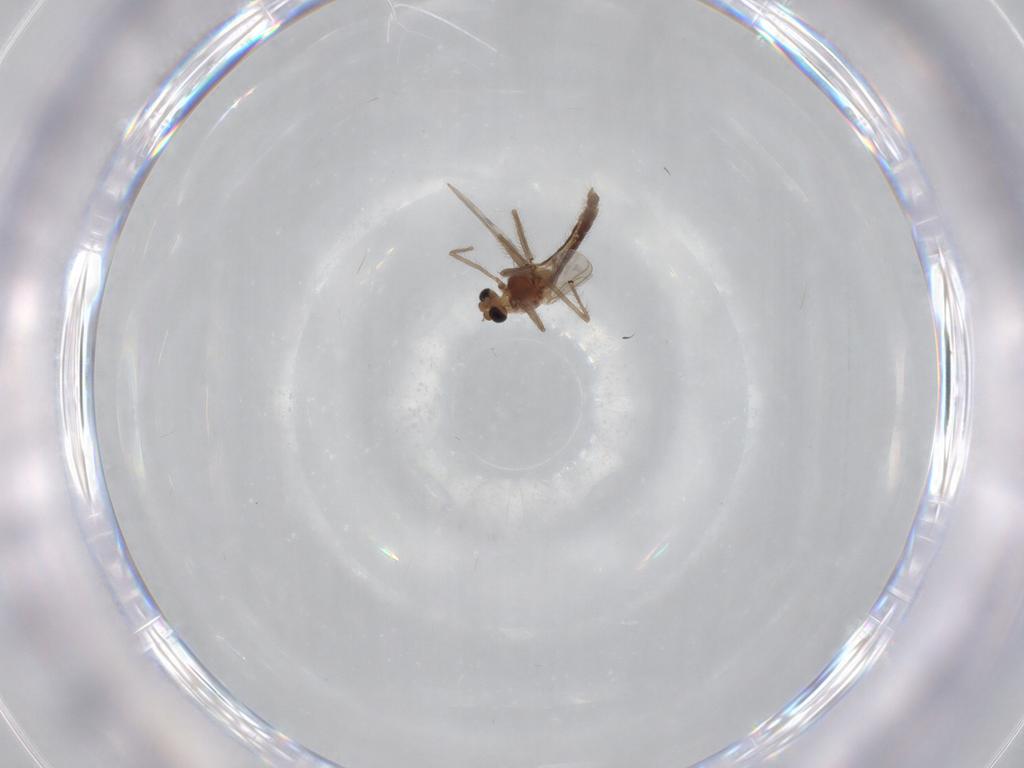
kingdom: Animalia
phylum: Arthropoda
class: Insecta
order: Diptera
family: Chironomidae
